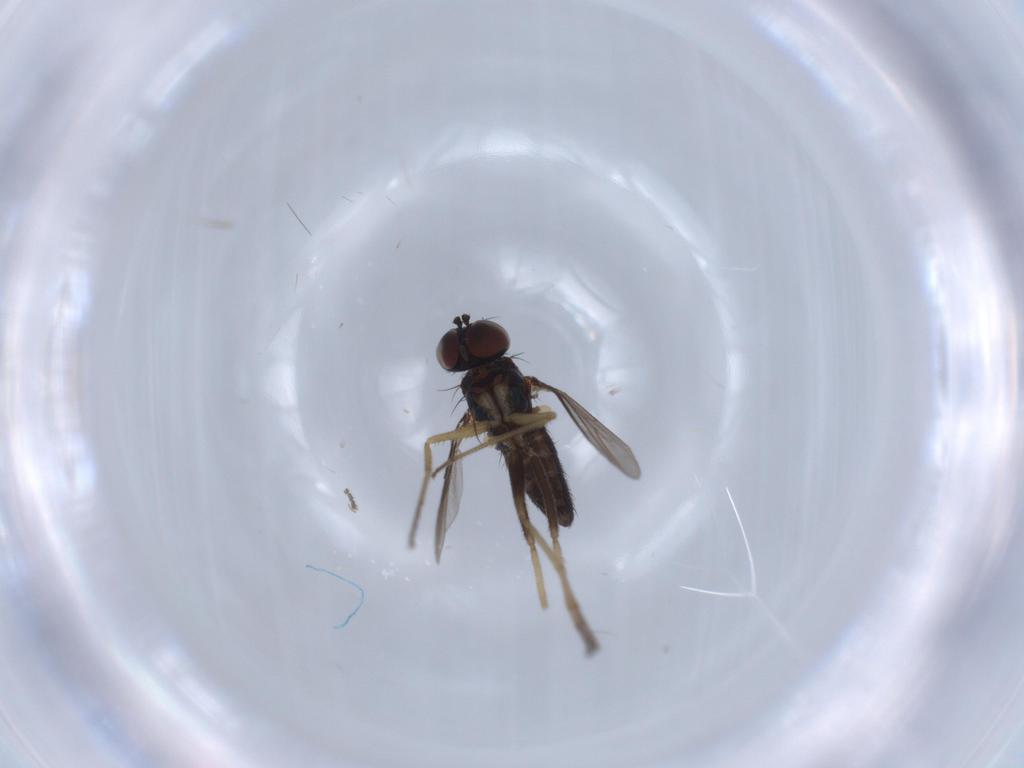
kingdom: Animalia
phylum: Arthropoda
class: Insecta
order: Diptera
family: Dolichopodidae
